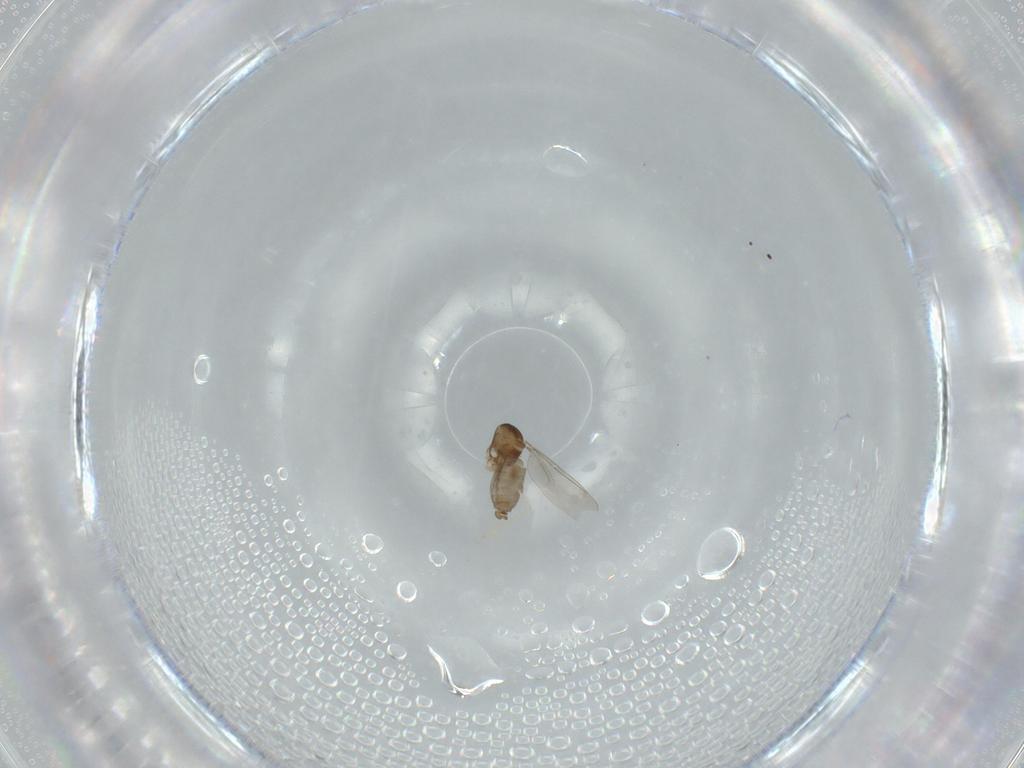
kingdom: Animalia
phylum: Arthropoda
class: Insecta
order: Diptera
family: Cecidomyiidae
